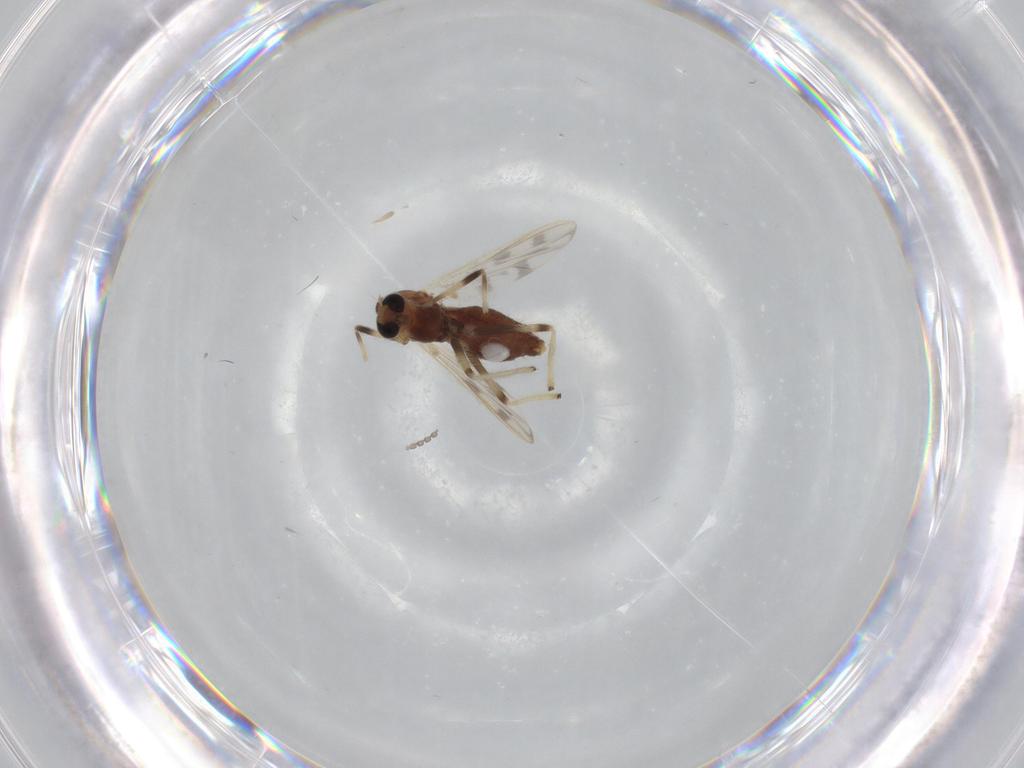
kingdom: Animalia
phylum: Arthropoda
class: Insecta
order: Diptera
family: Chironomidae
